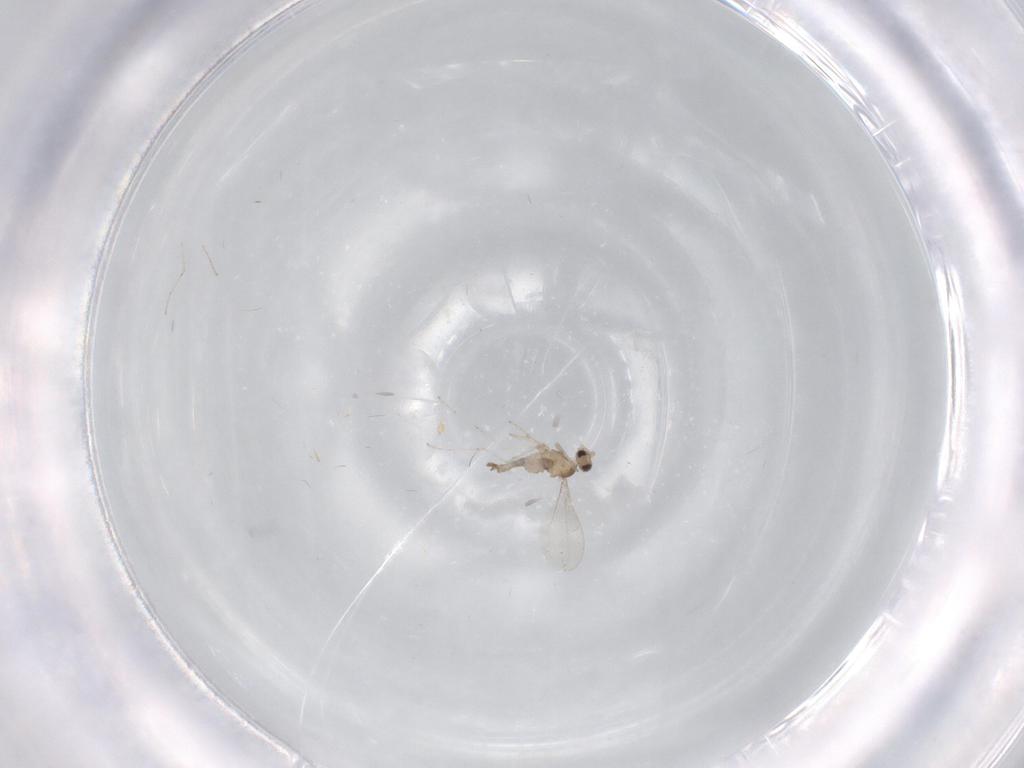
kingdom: Animalia
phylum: Arthropoda
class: Insecta
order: Diptera
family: Cecidomyiidae
